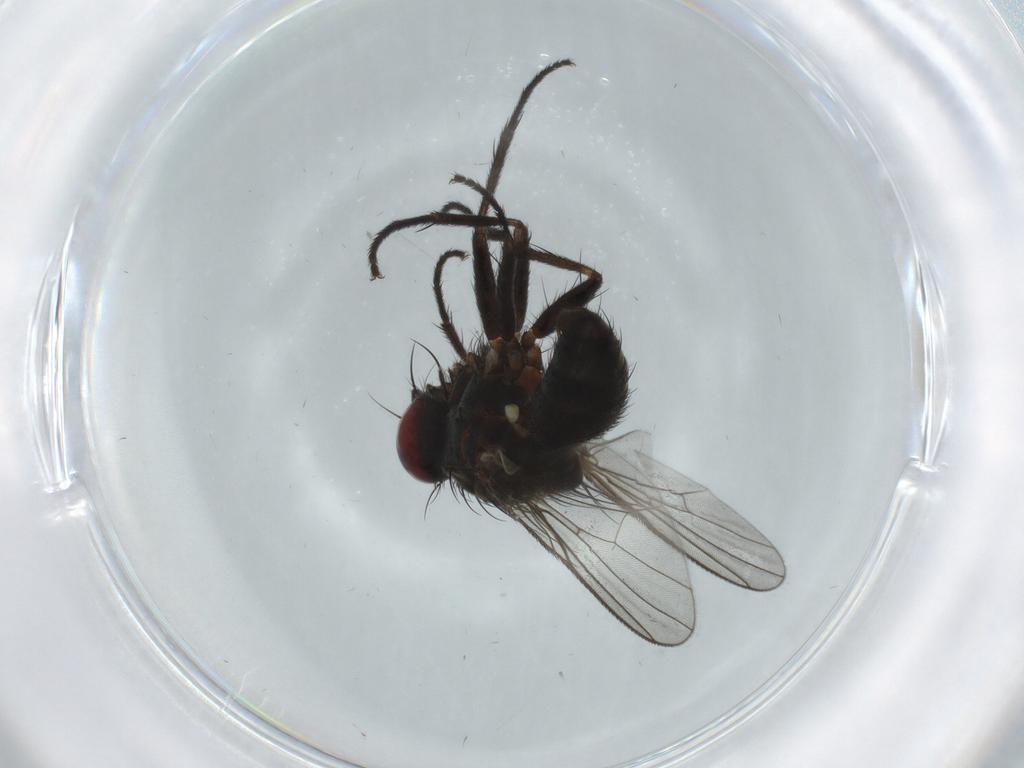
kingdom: Animalia
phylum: Arthropoda
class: Insecta
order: Diptera
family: Muscidae
